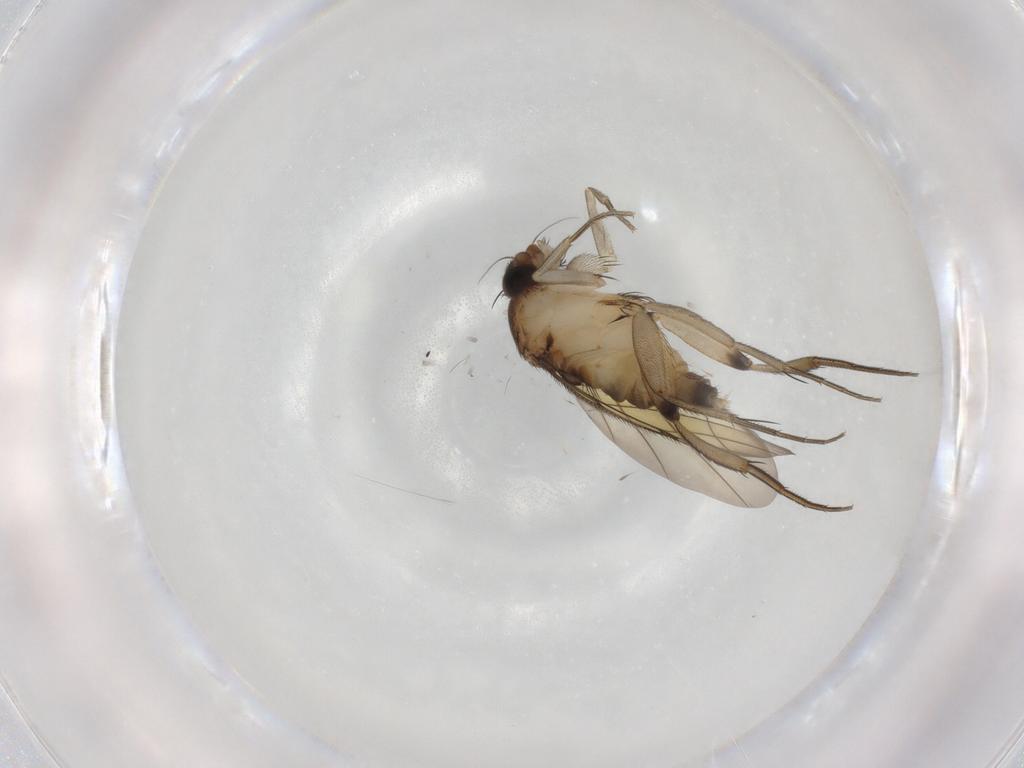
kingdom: Animalia
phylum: Arthropoda
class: Insecta
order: Diptera
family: Phoridae
